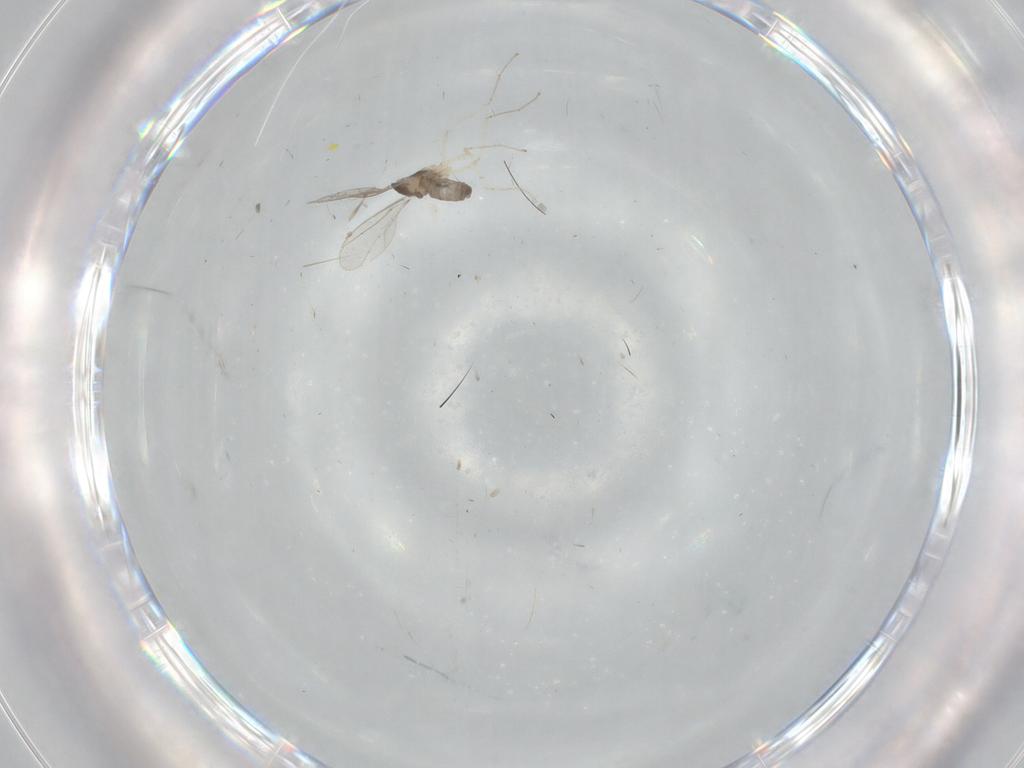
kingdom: Animalia
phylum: Arthropoda
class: Insecta
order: Diptera
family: Cecidomyiidae
